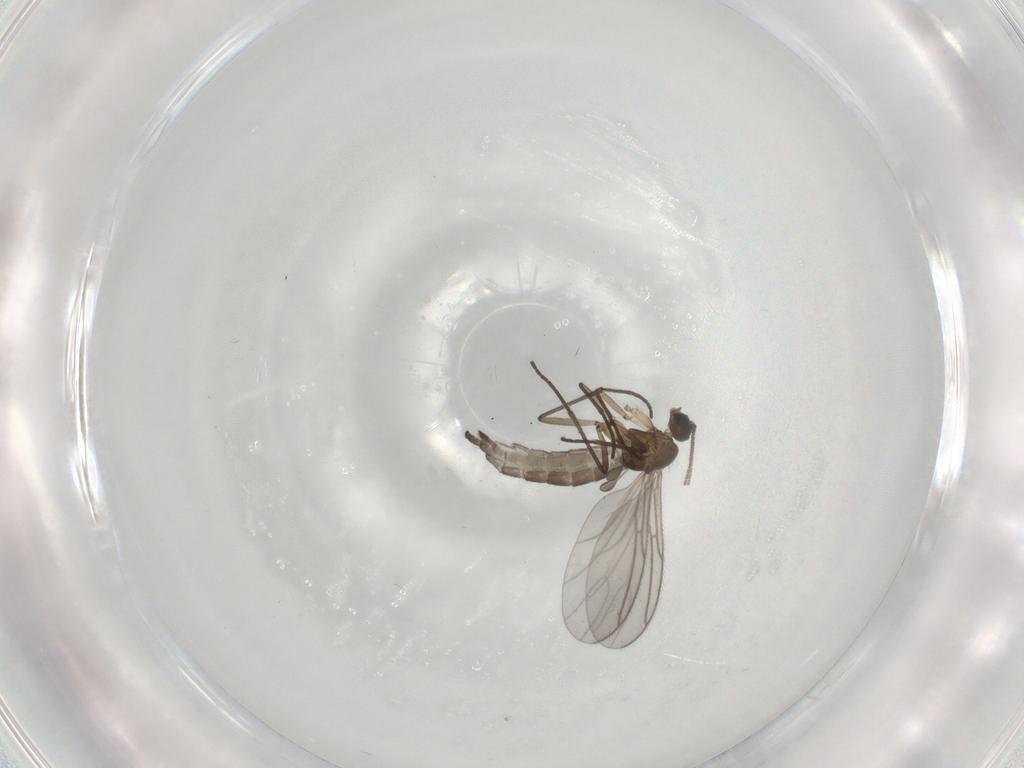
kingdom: Animalia
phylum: Arthropoda
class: Insecta
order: Diptera
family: Sciaridae
